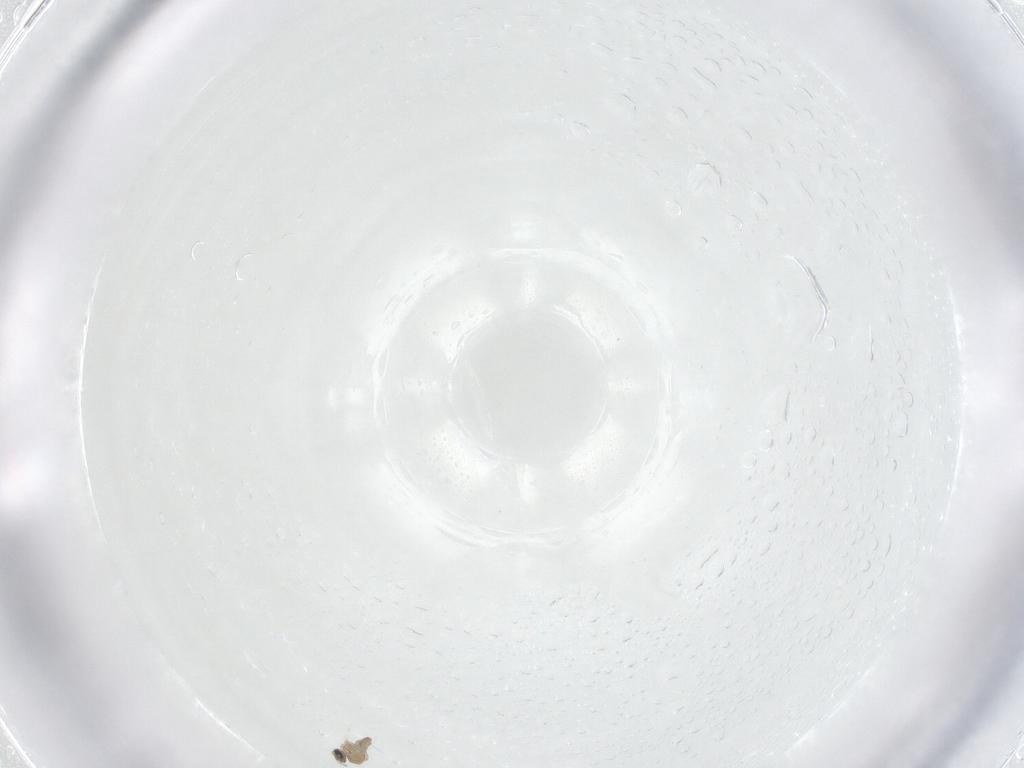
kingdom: Animalia
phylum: Arthropoda
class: Insecta
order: Diptera
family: Cecidomyiidae
